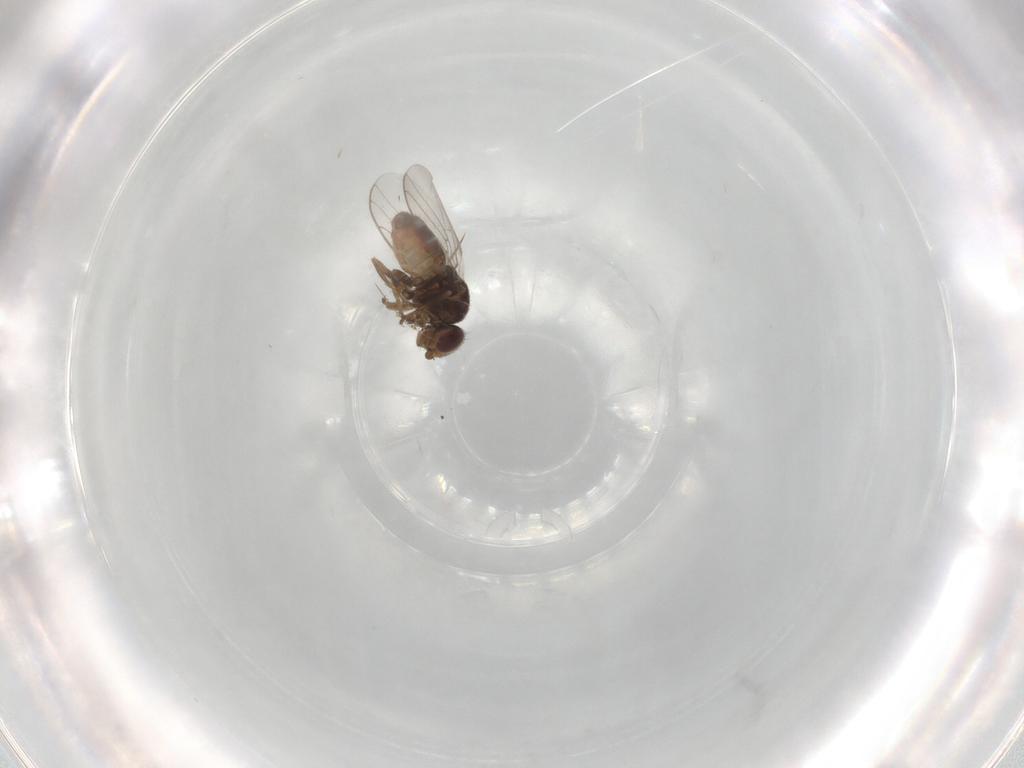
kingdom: Animalia
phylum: Arthropoda
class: Insecta
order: Diptera
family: Chloropidae
